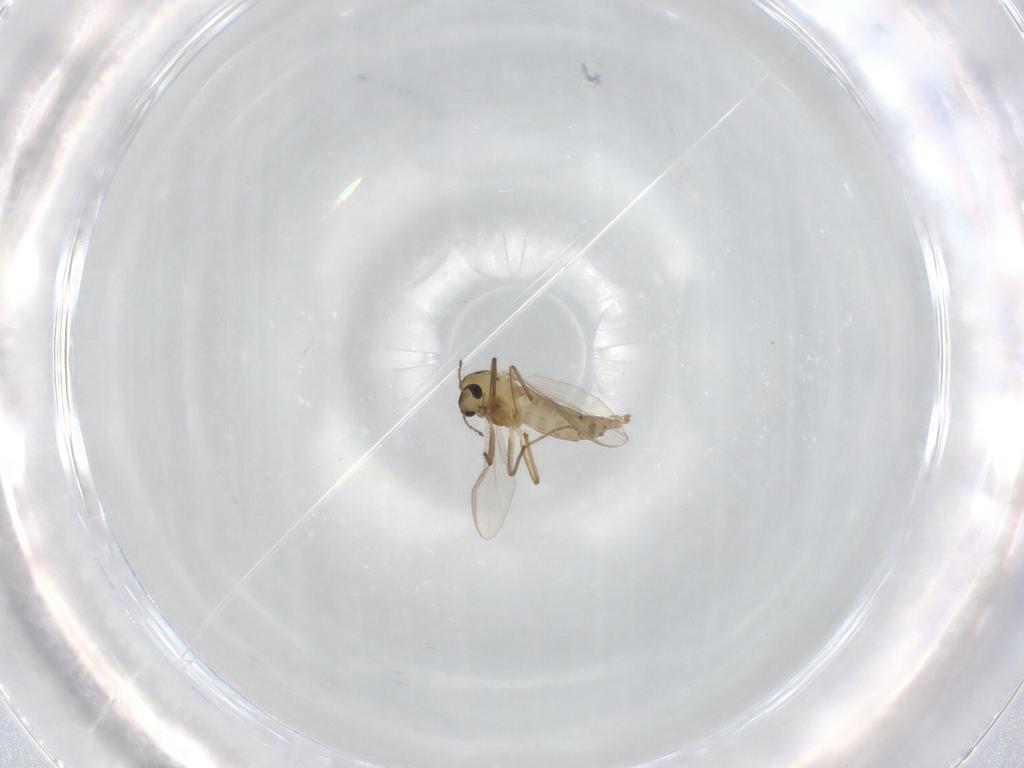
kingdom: Animalia
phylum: Arthropoda
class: Insecta
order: Diptera
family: Chironomidae
